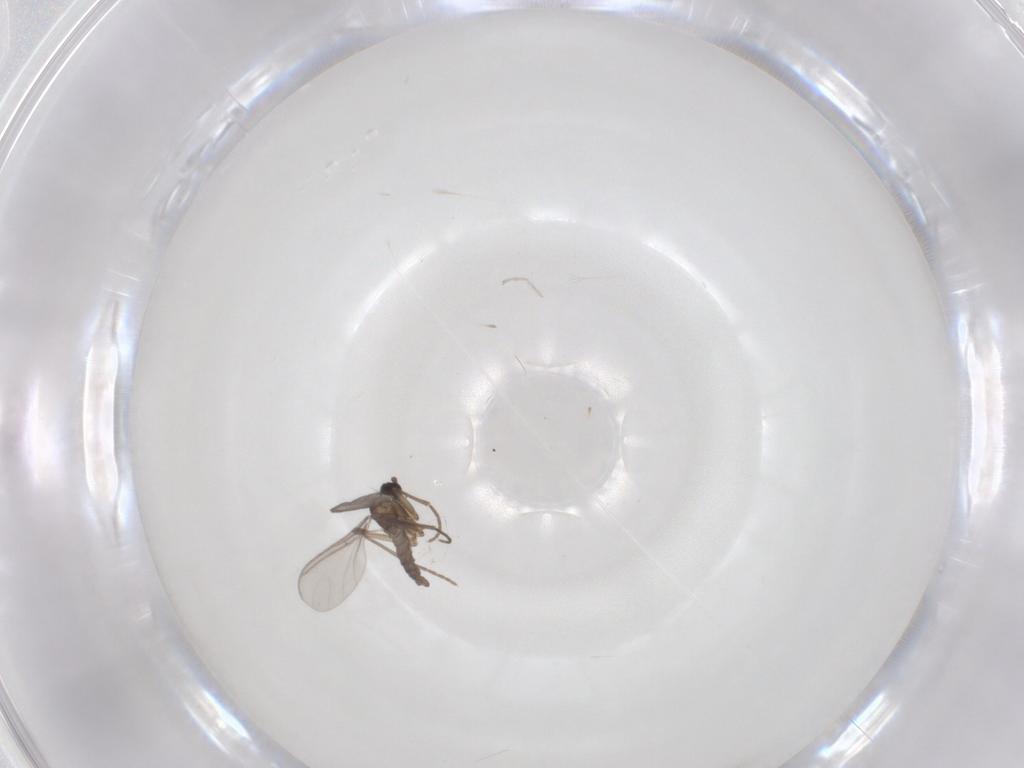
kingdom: Animalia
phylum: Arthropoda
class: Insecta
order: Diptera
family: Sciaridae
